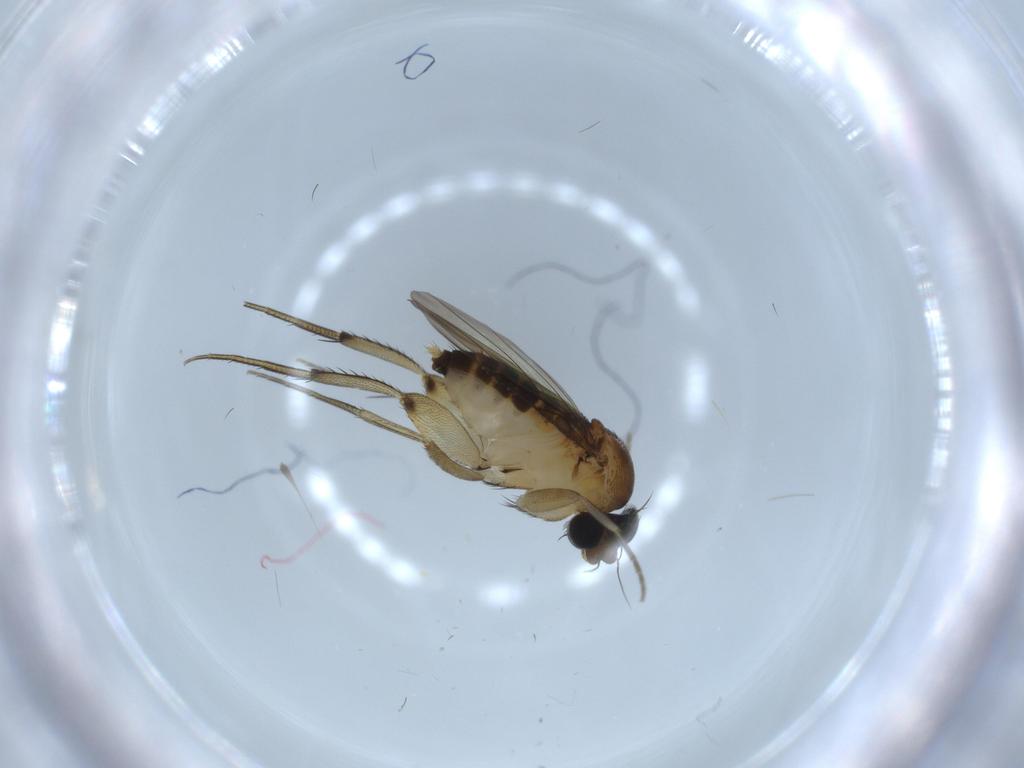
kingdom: Animalia
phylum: Arthropoda
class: Insecta
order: Diptera
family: Phoridae
